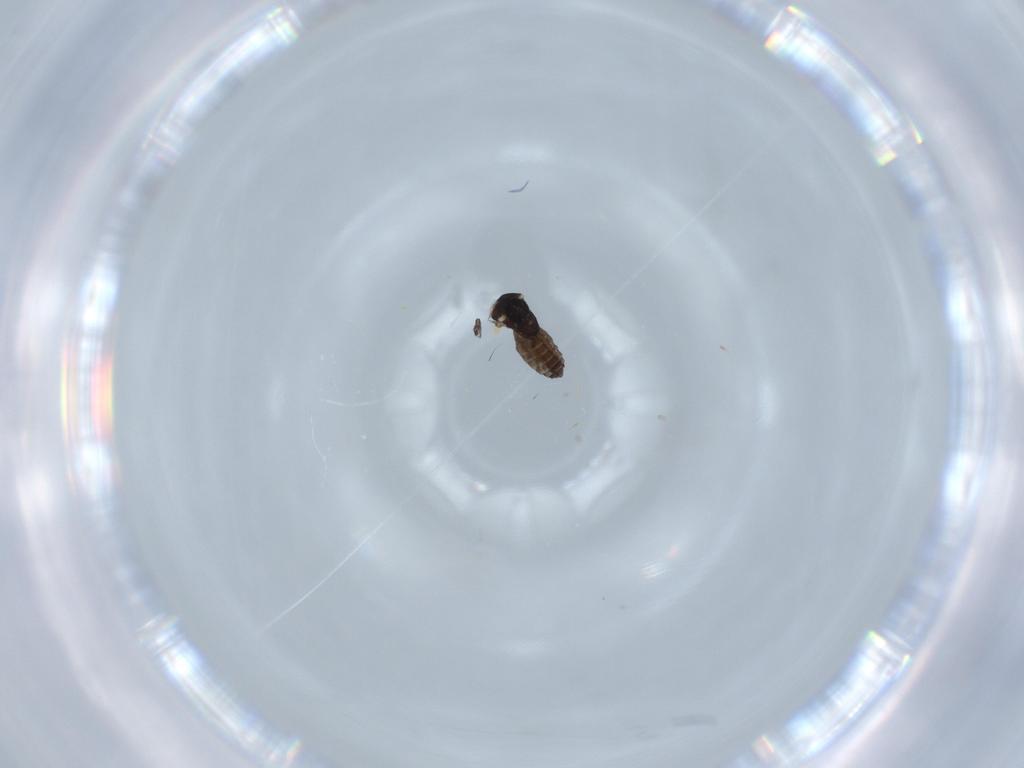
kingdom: Animalia
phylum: Arthropoda
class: Insecta
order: Diptera
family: Ceratopogonidae
